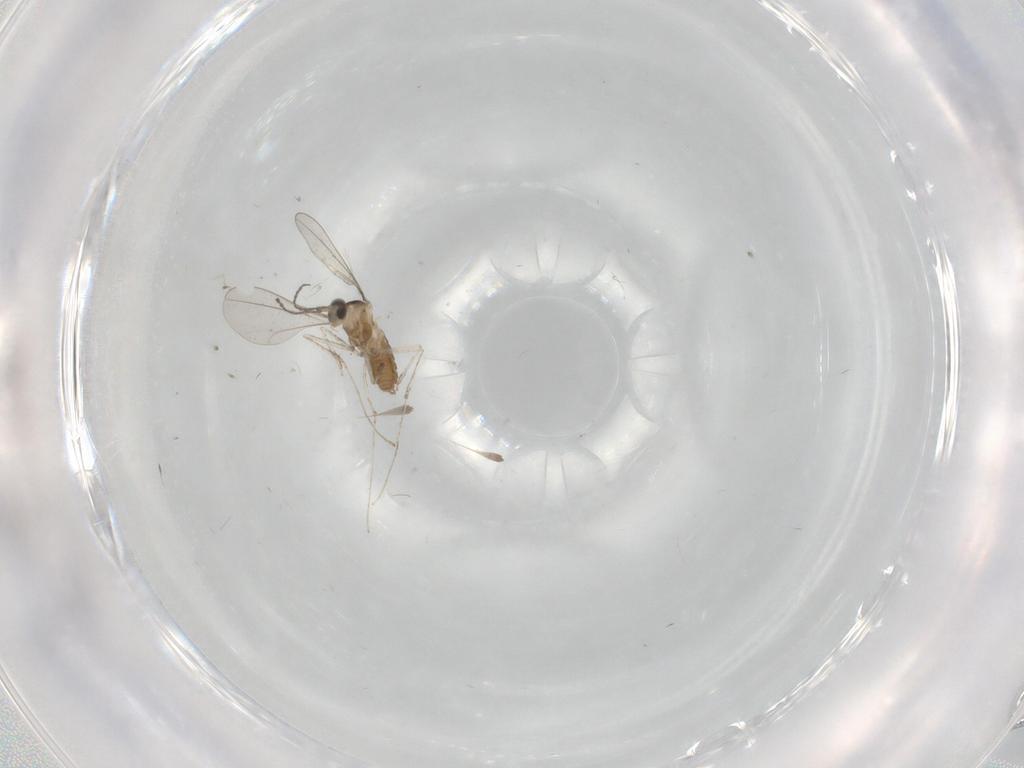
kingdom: Animalia
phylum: Arthropoda
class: Insecta
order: Diptera
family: Cecidomyiidae
